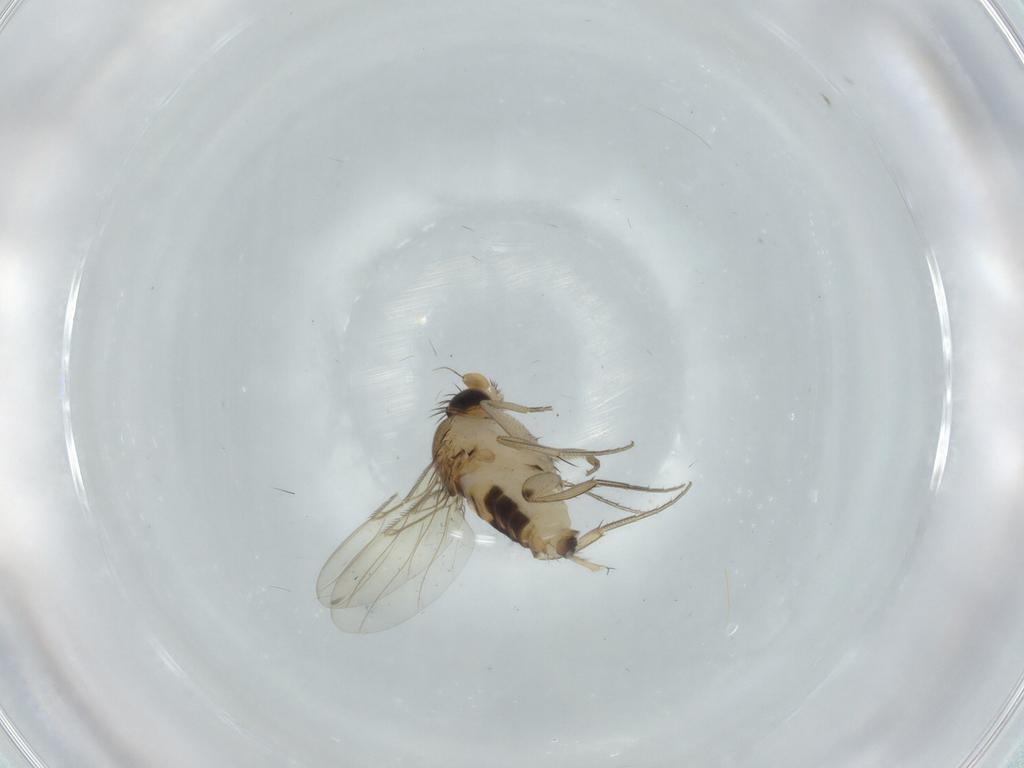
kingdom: Animalia
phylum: Arthropoda
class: Insecta
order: Diptera
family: Phoridae
